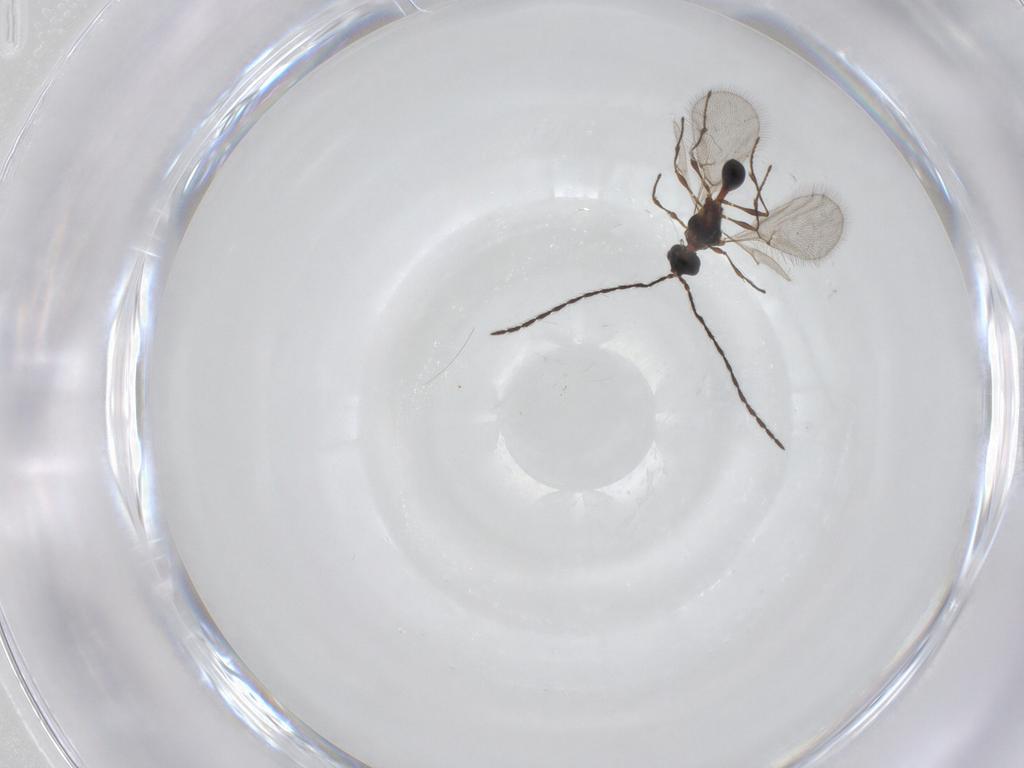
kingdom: Animalia
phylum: Arthropoda
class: Insecta
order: Hymenoptera
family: Diapriidae
